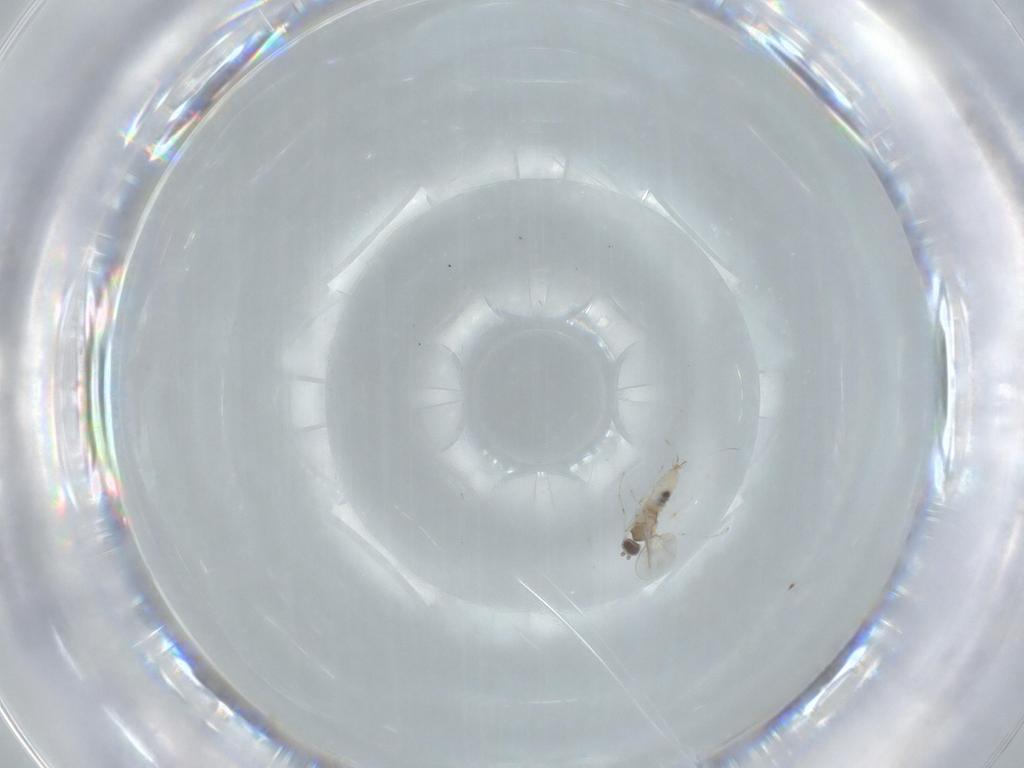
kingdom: Animalia
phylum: Arthropoda
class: Insecta
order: Diptera
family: Cecidomyiidae
